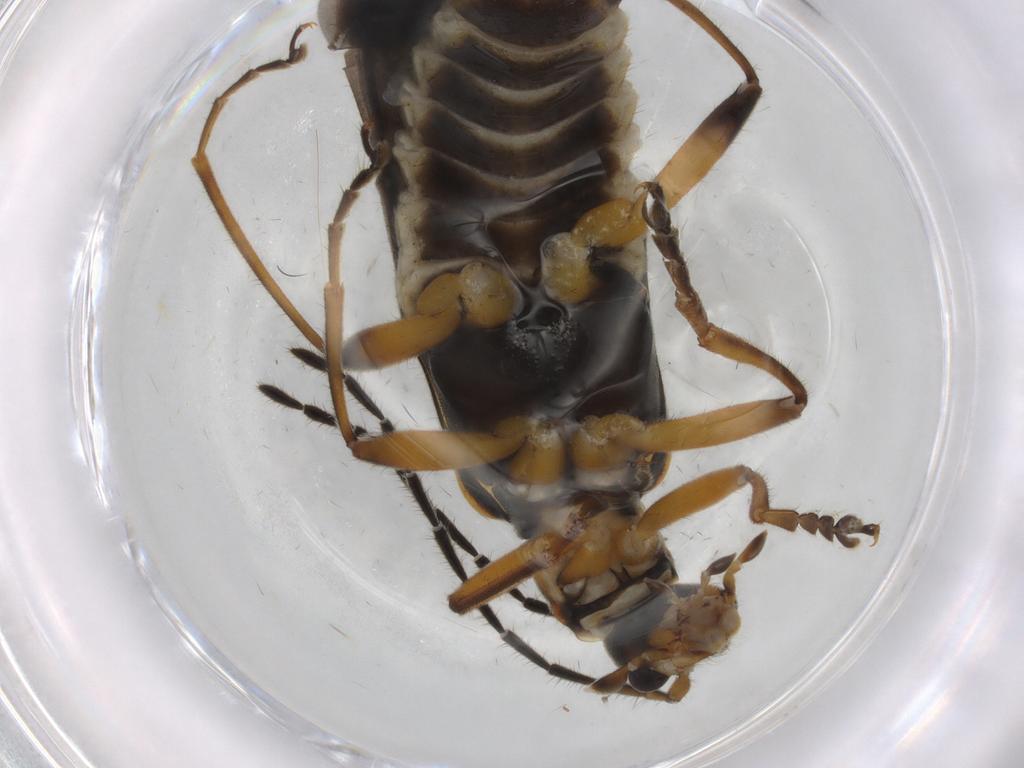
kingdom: Animalia
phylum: Arthropoda
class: Insecta
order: Coleoptera
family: Cantharidae
